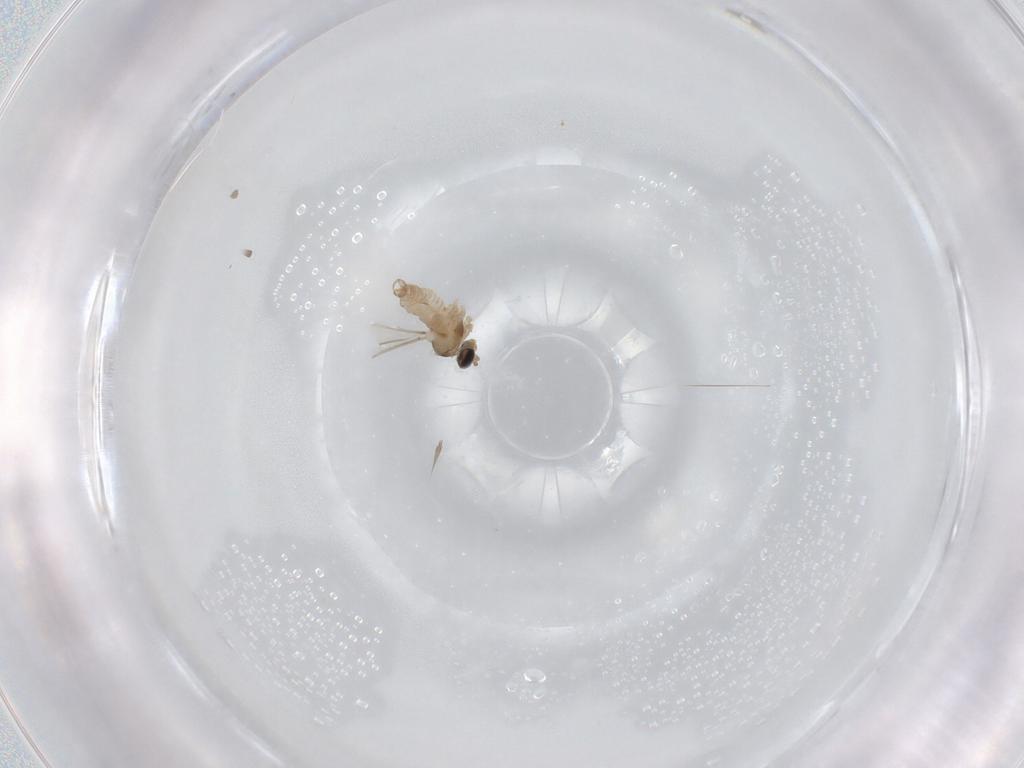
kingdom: Animalia
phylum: Arthropoda
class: Insecta
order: Diptera
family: Cecidomyiidae
